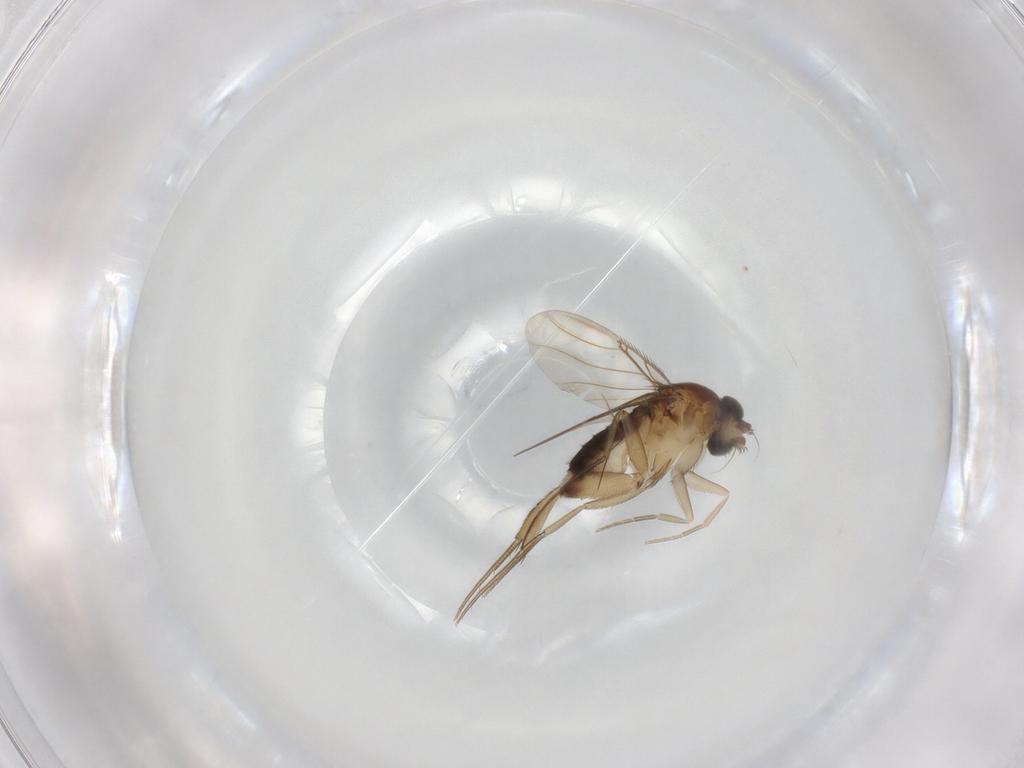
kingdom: Animalia
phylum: Arthropoda
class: Insecta
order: Diptera
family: Phoridae
